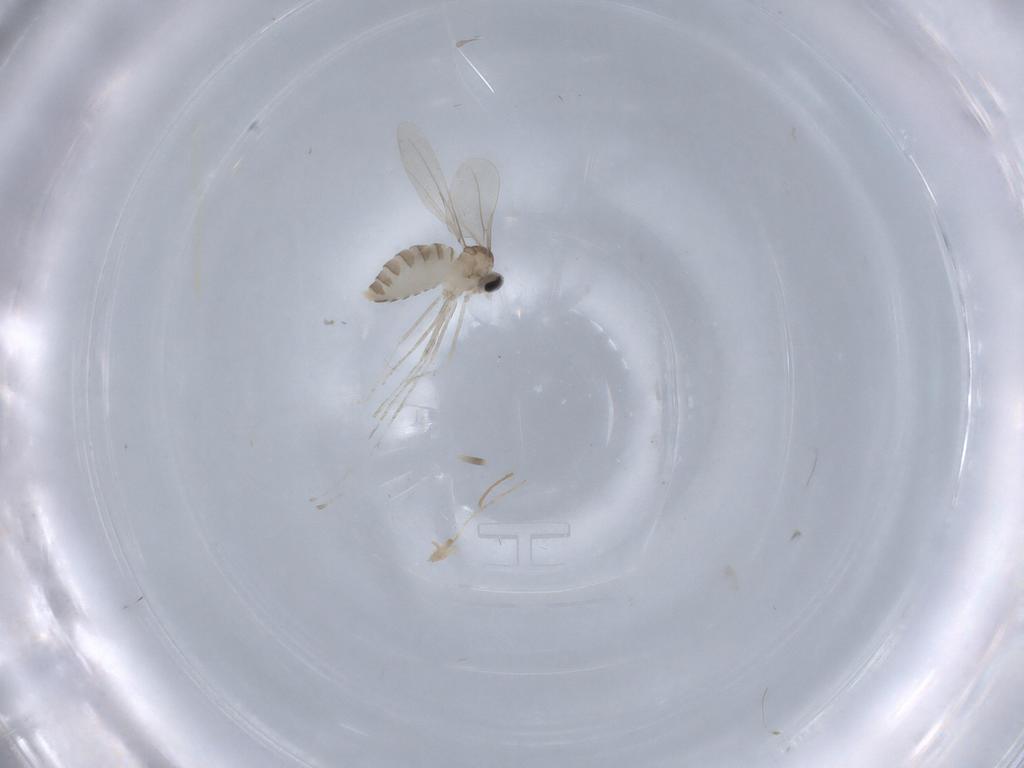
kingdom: Animalia
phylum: Arthropoda
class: Insecta
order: Diptera
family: Cecidomyiidae
